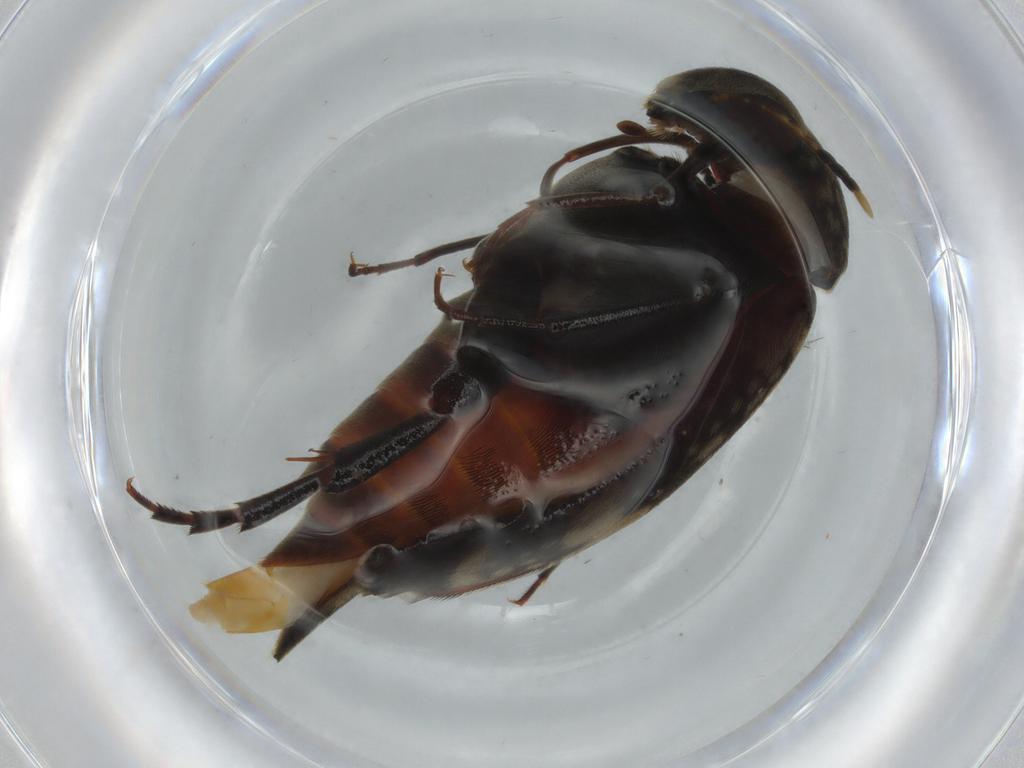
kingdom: Animalia
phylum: Arthropoda
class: Insecta
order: Coleoptera
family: Mordellidae
